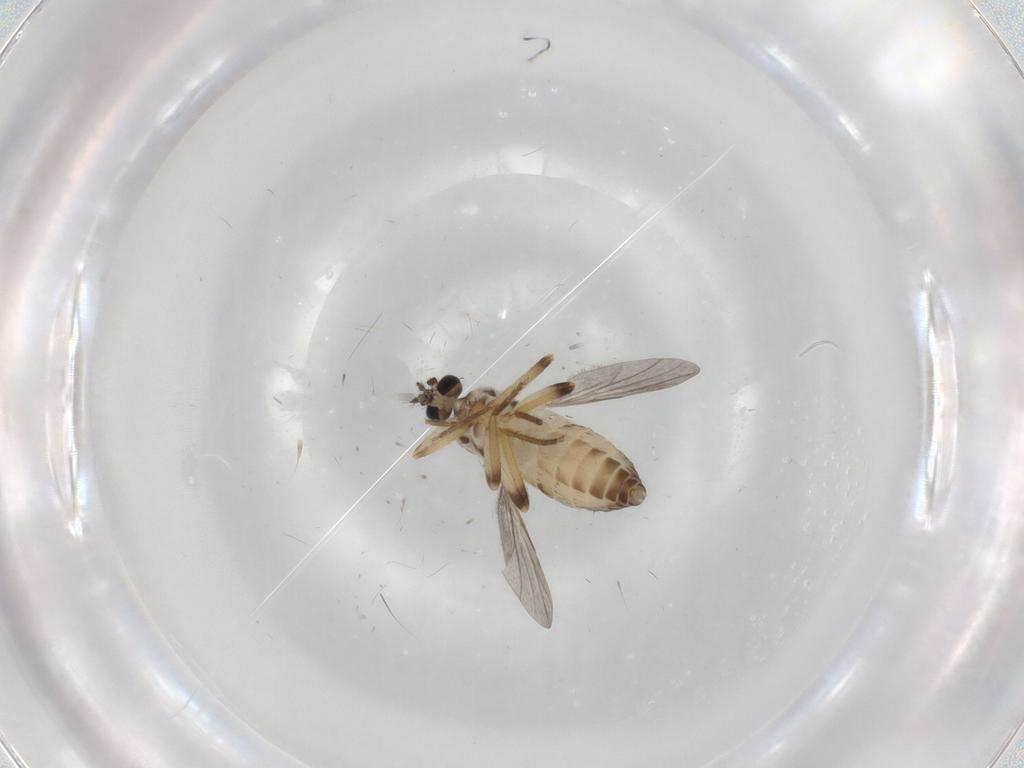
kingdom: Animalia
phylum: Arthropoda
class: Insecta
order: Diptera
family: Ceratopogonidae
